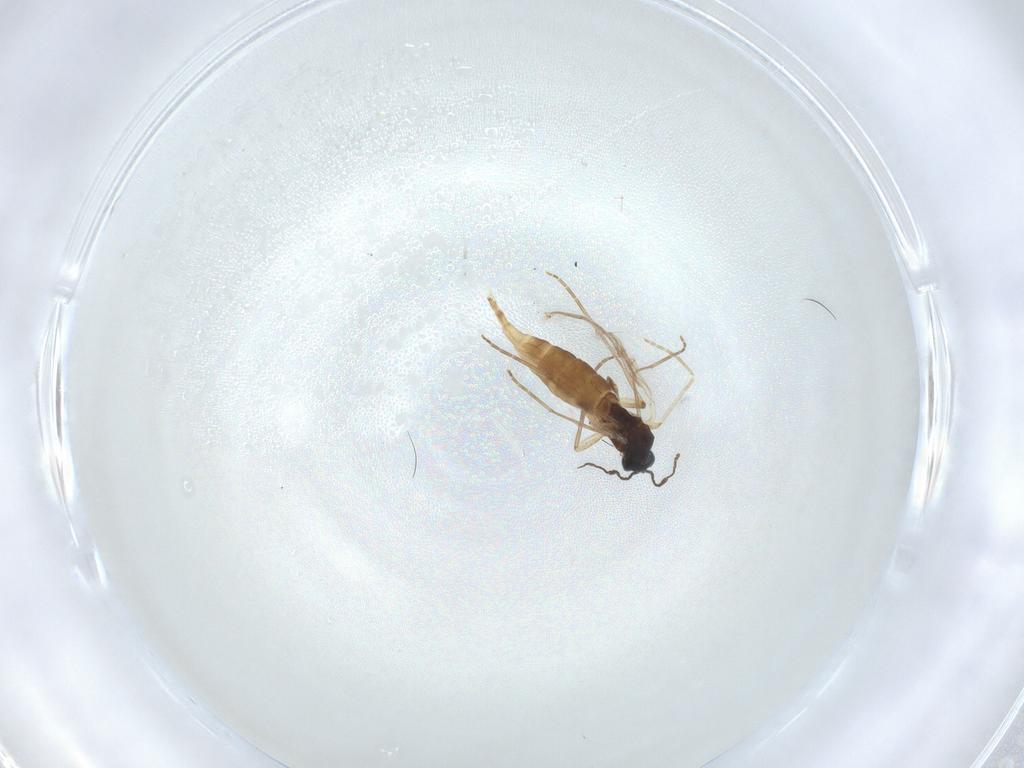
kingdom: Animalia
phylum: Arthropoda
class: Insecta
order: Diptera
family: Sciaridae
